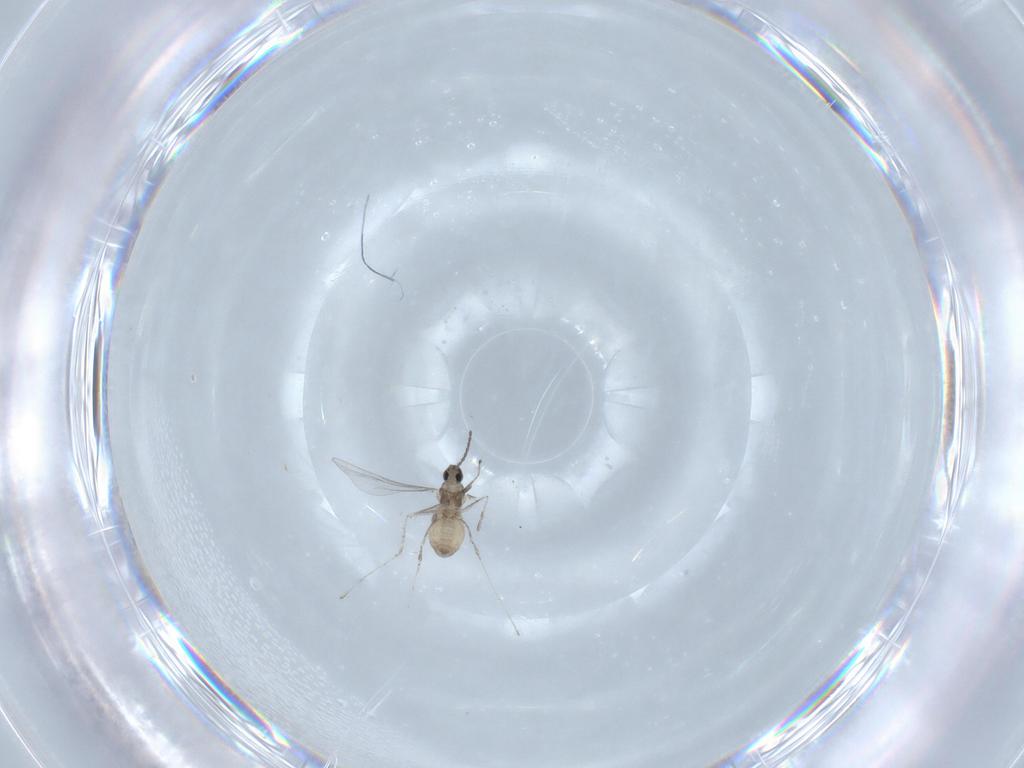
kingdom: Animalia
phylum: Arthropoda
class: Insecta
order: Diptera
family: Cecidomyiidae
